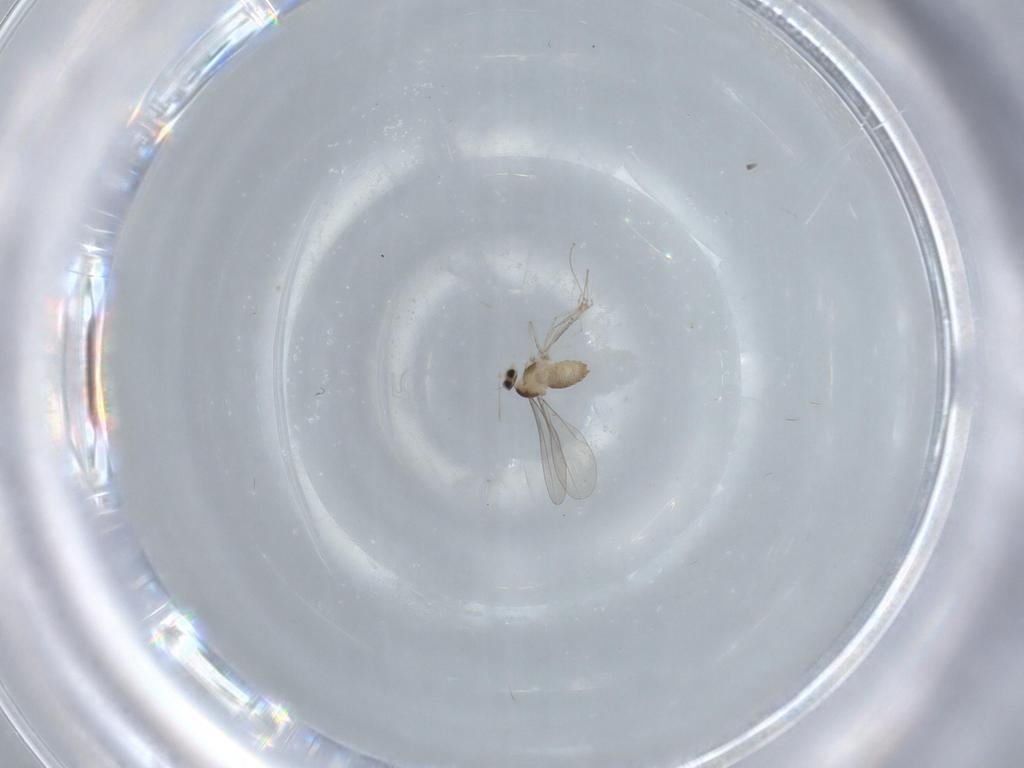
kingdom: Animalia
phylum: Arthropoda
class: Insecta
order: Diptera
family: Cecidomyiidae
